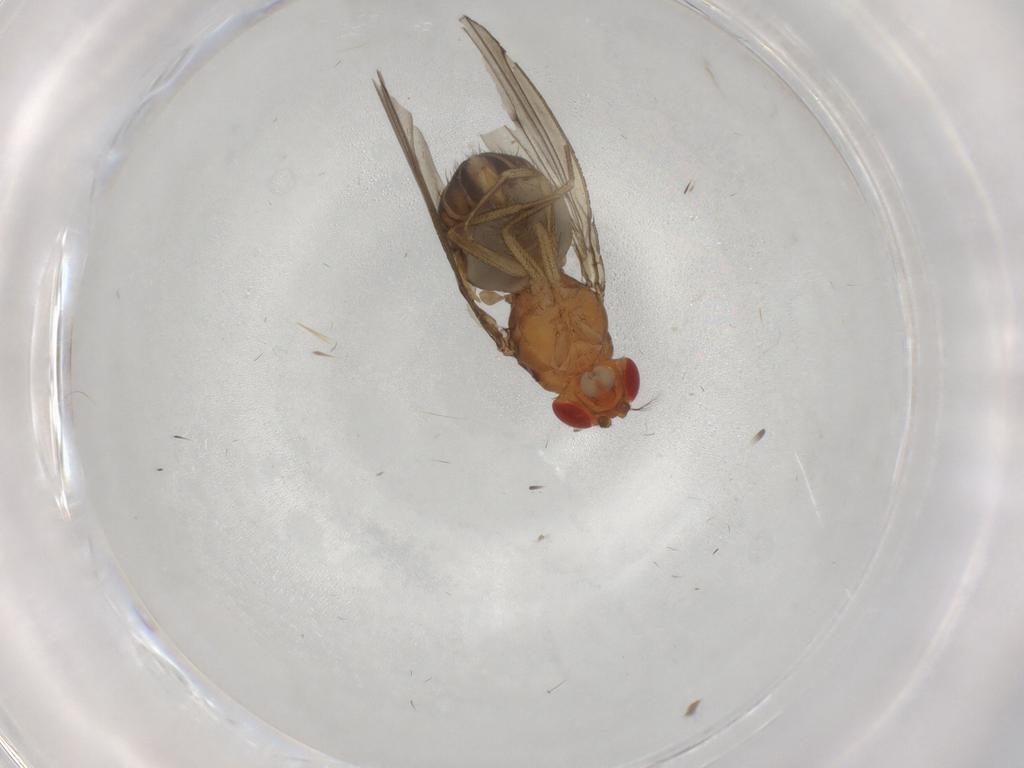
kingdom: Animalia
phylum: Arthropoda
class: Insecta
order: Diptera
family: Drosophilidae
